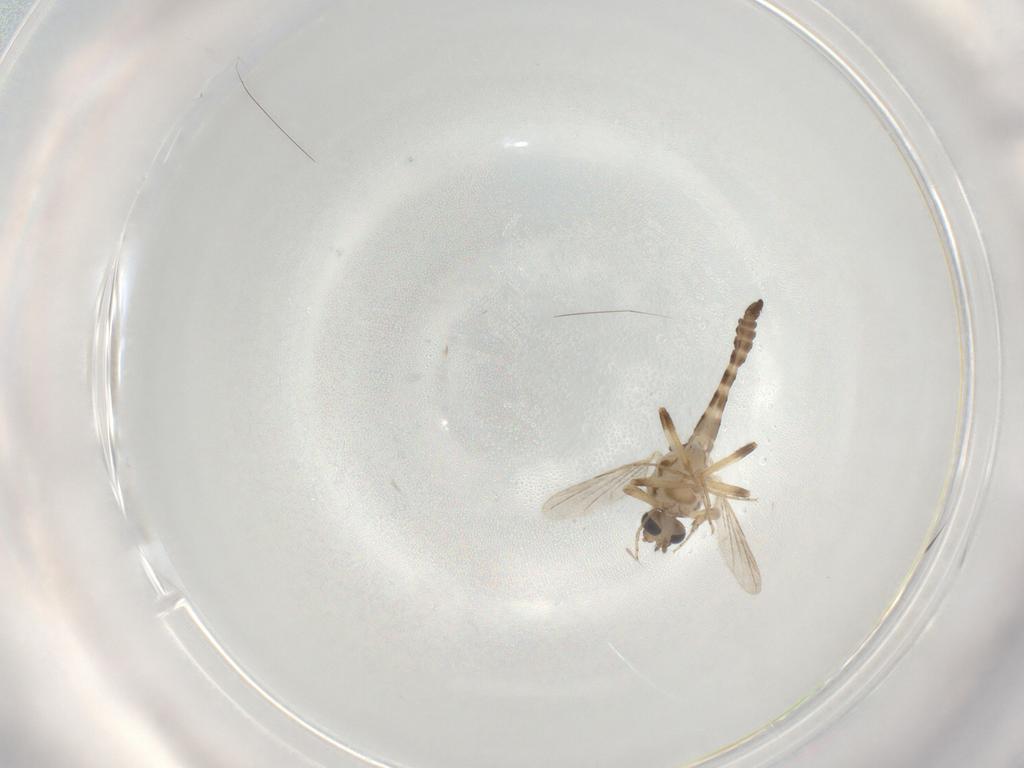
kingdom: Animalia
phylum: Arthropoda
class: Insecta
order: Diptera
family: Ceratopogonidae
